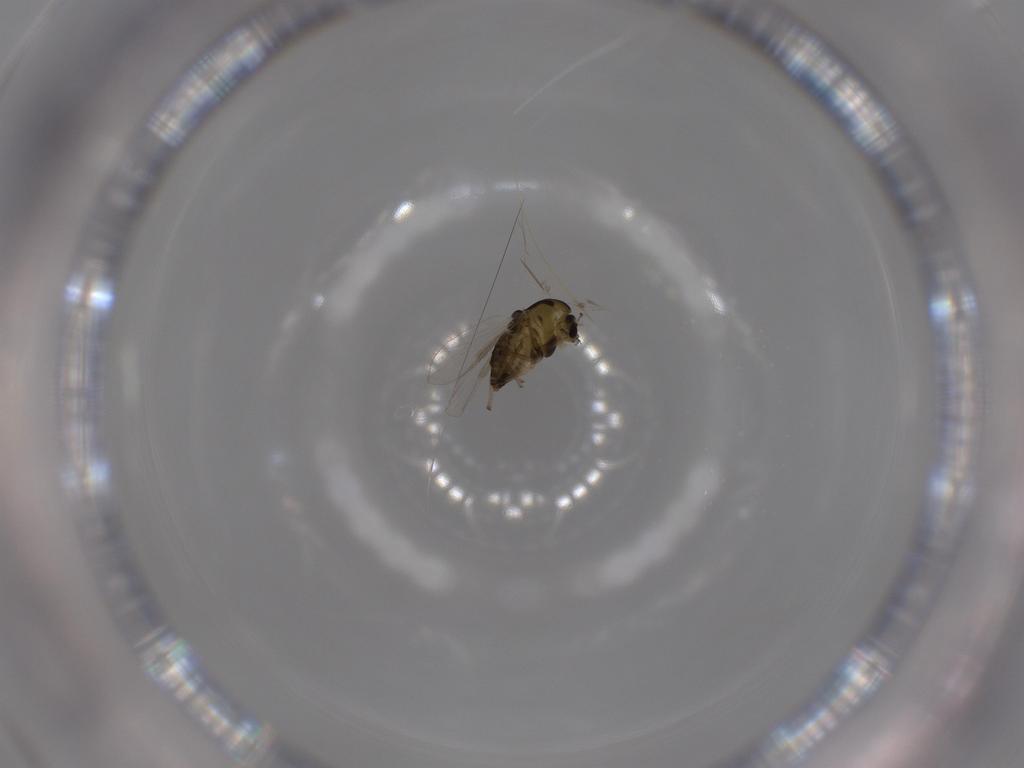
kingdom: Animalia
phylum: Arthropoda
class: Insecta
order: Diptera
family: Chironomidae
